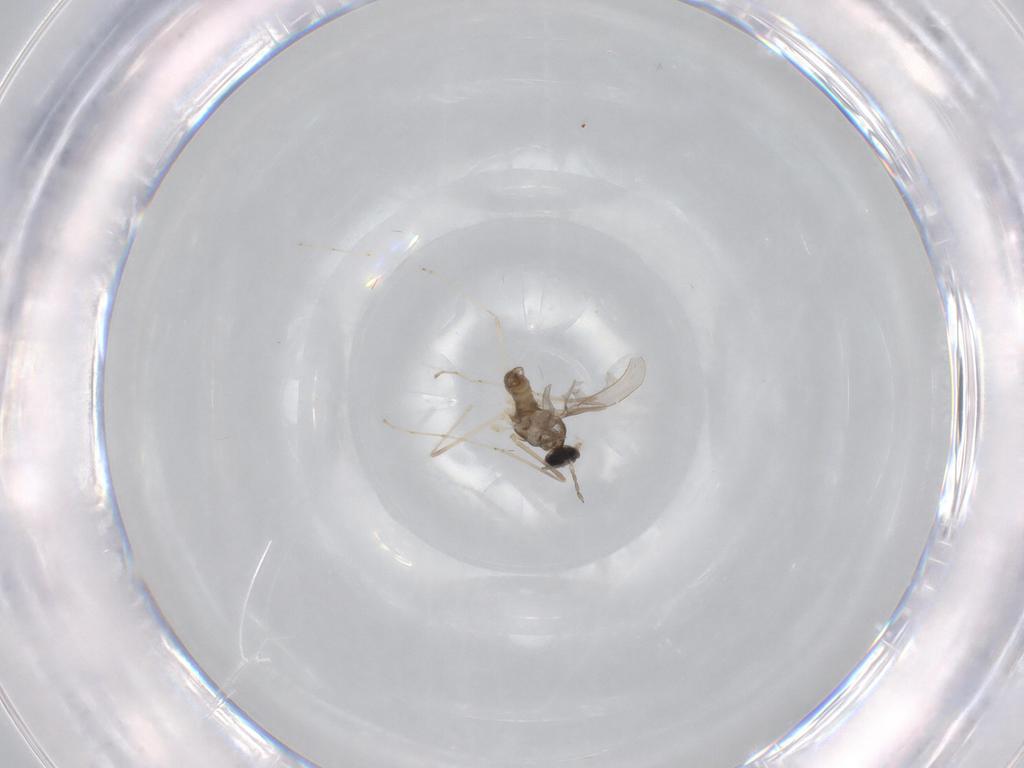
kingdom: Animalia
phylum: Arthropoda
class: Insecta
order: Diptera
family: Cecidomyiidae
